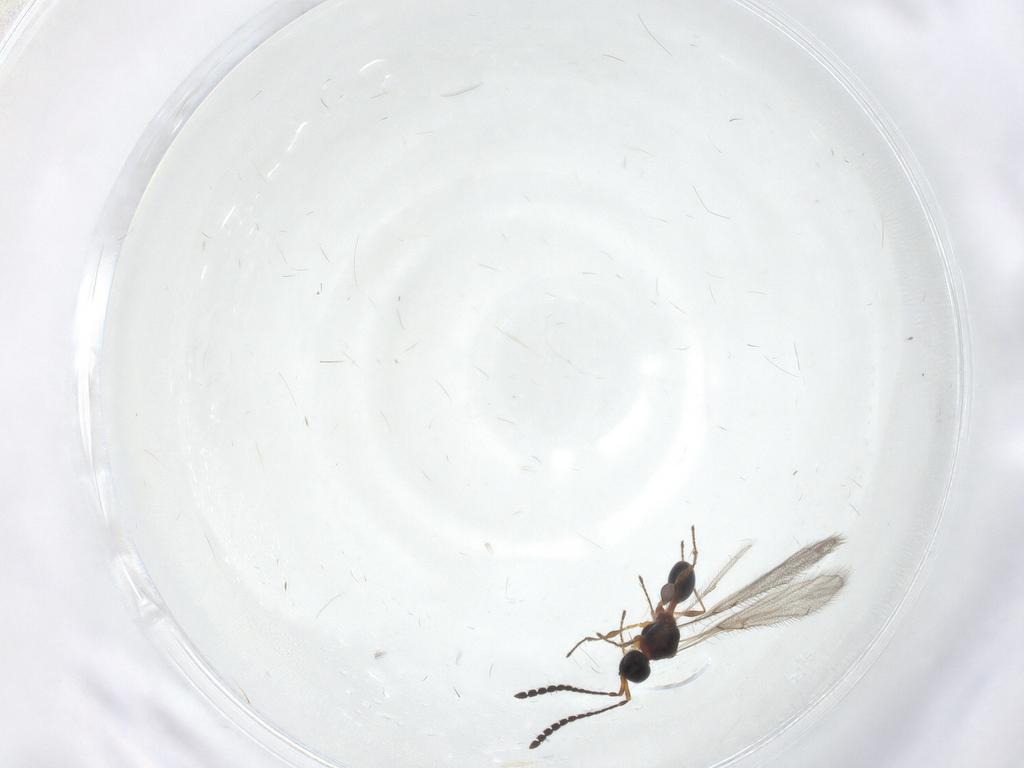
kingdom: Animalia
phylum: Arthropoda
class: Insecta
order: Hymenoptera
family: Diapriidae
